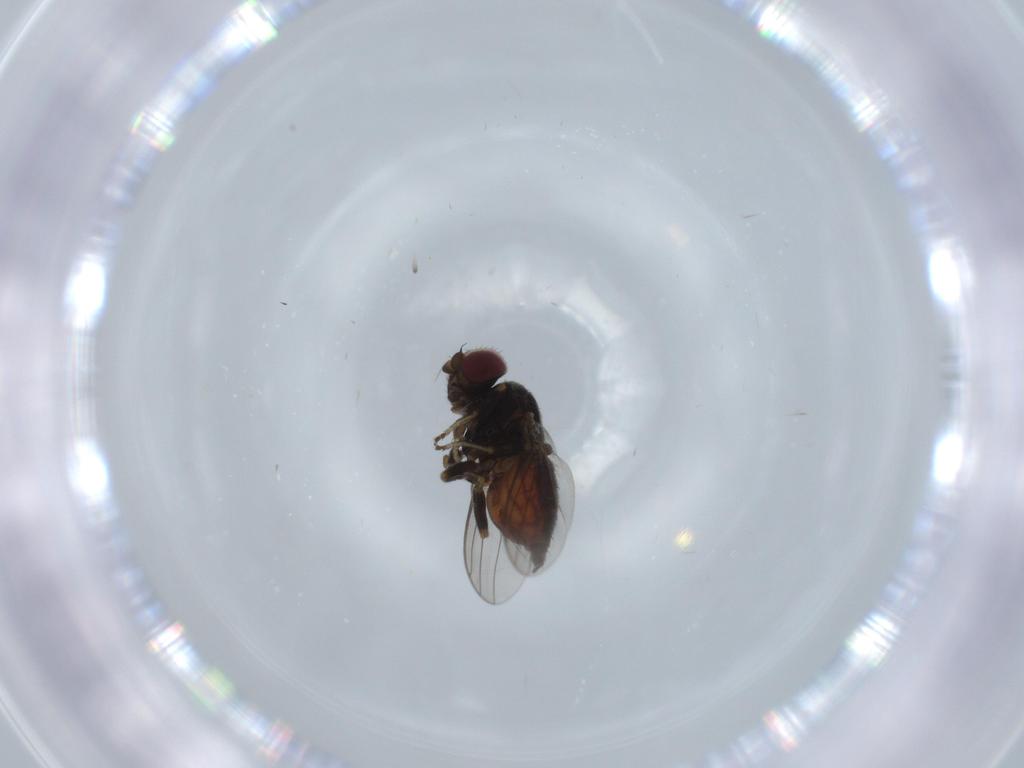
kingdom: Animalia
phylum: Arthropoda
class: Insecta
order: Diptera
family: Chloropidae
